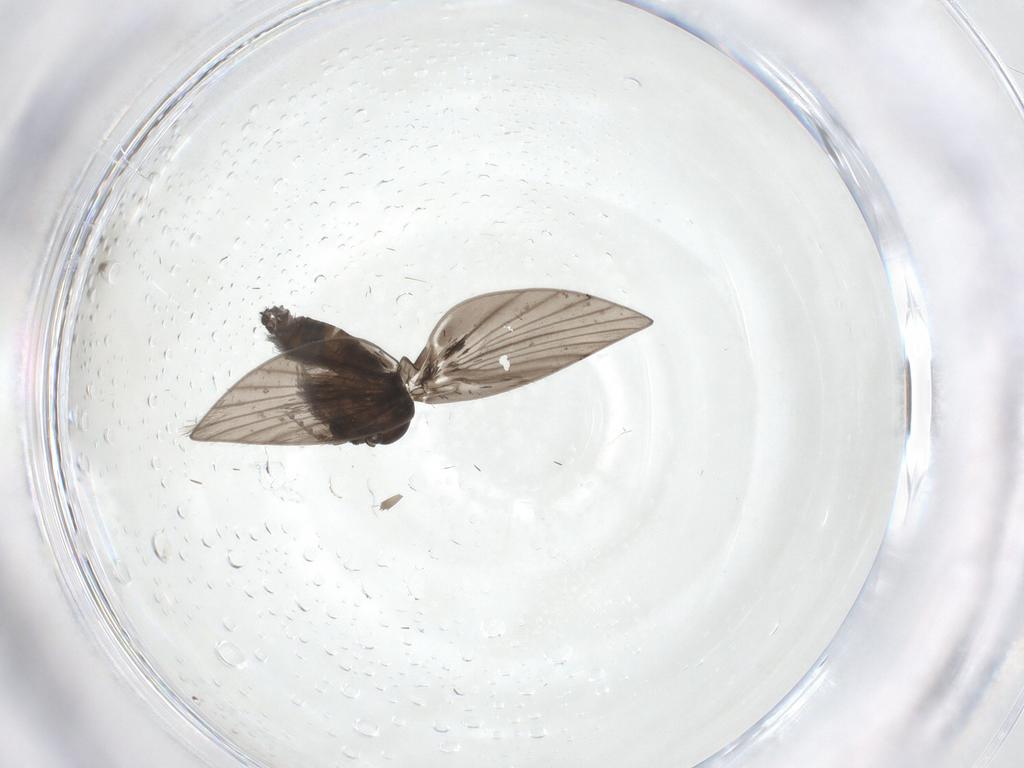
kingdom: Animalia
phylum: Arthropoda
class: Insecta
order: Diptera
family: Psychodidae
